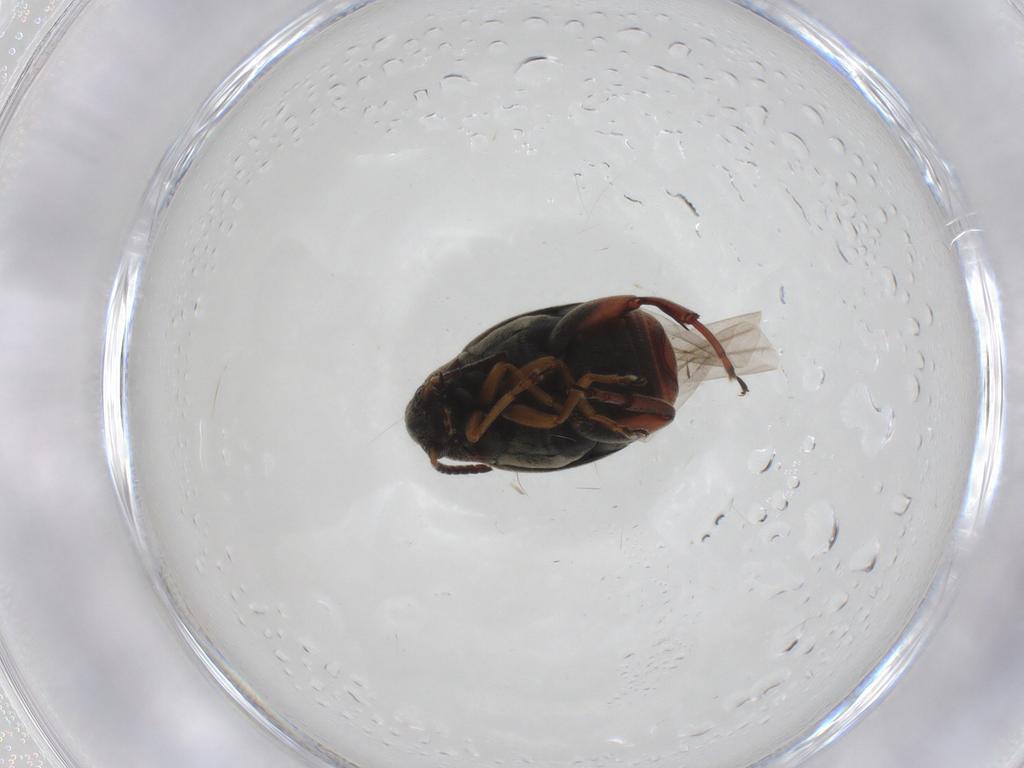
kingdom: Animalia
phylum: Arthropoda
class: Insecta
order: Coleoptera
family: Chrysomelidae
